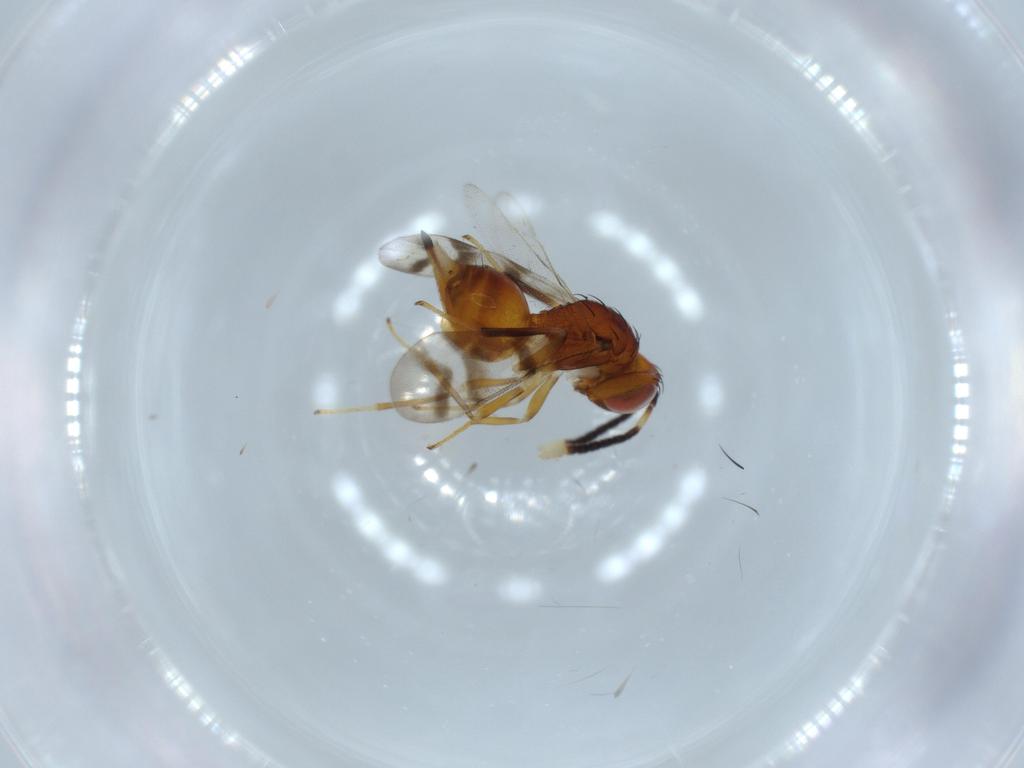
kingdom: Animalia
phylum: Arthropoda
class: Insecta
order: Hymenoptera
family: Diparidae
